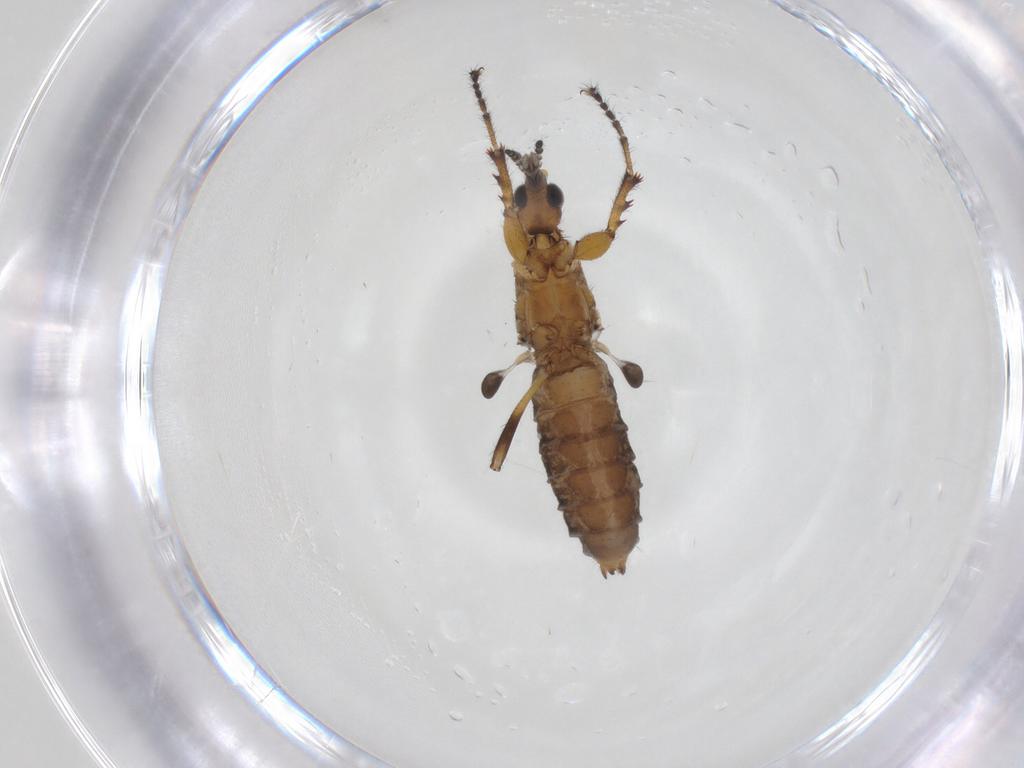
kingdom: Animalia
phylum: Arthropoda
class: Insecta
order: Diptera
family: Bibionidae
